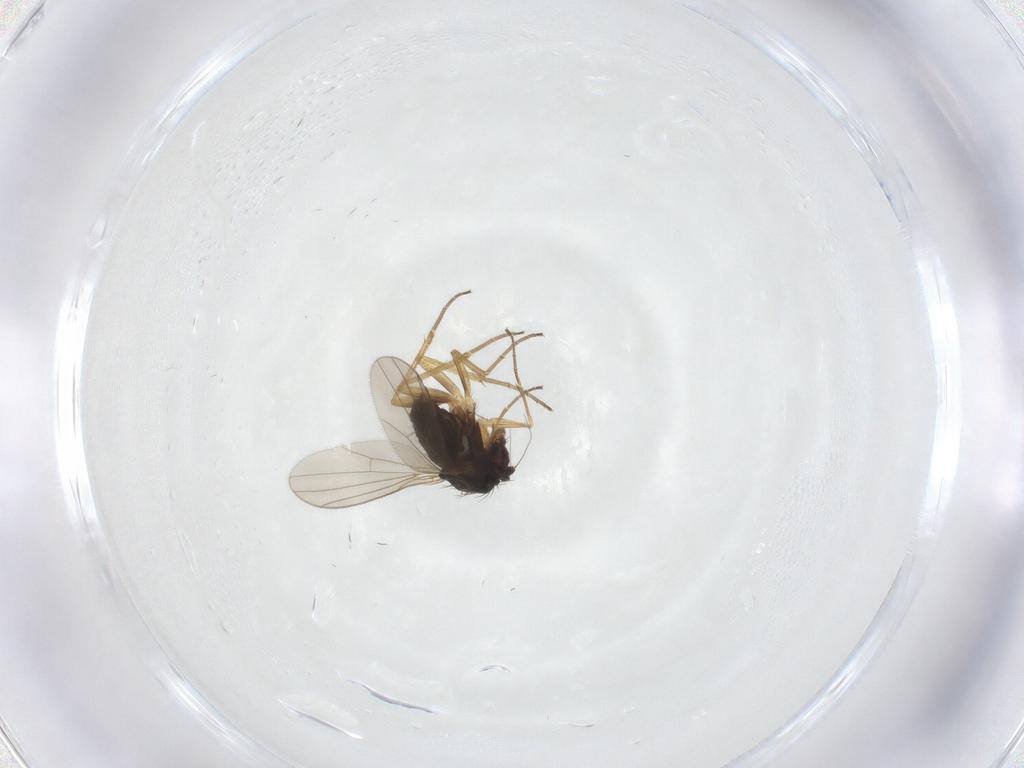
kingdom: Animalia
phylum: Arthropoda
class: Insecta
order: Diptera
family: Dolichopodidae
